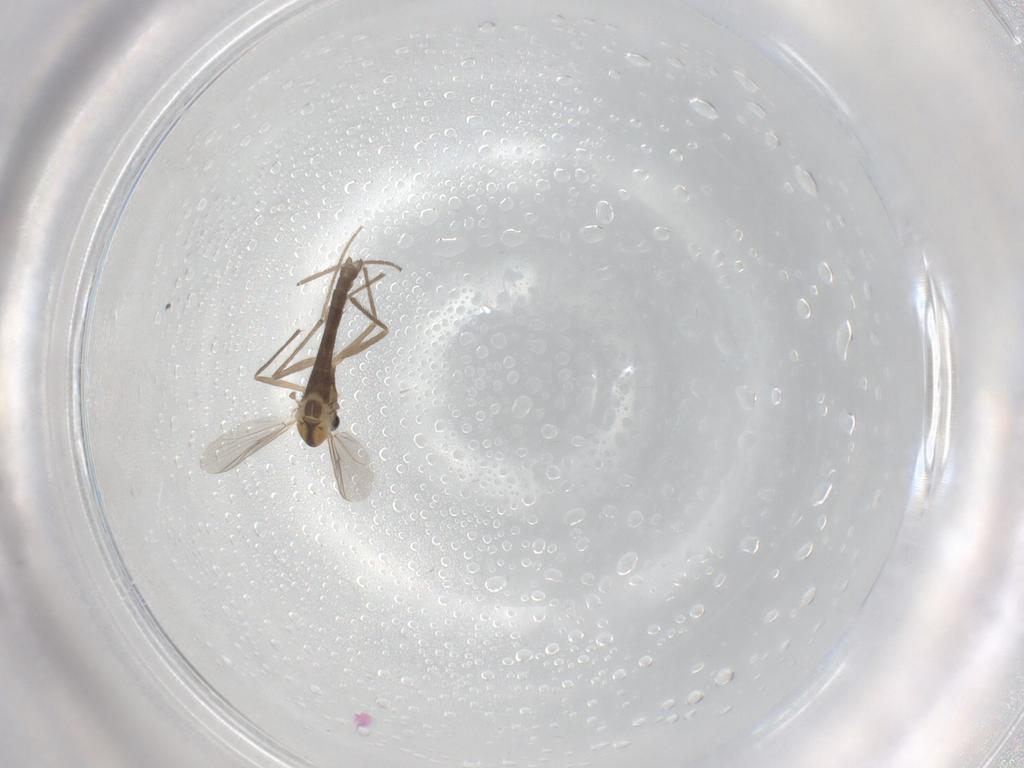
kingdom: Animalia
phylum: Arthropoda
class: Insecta
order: Diptera
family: Chironomidae
